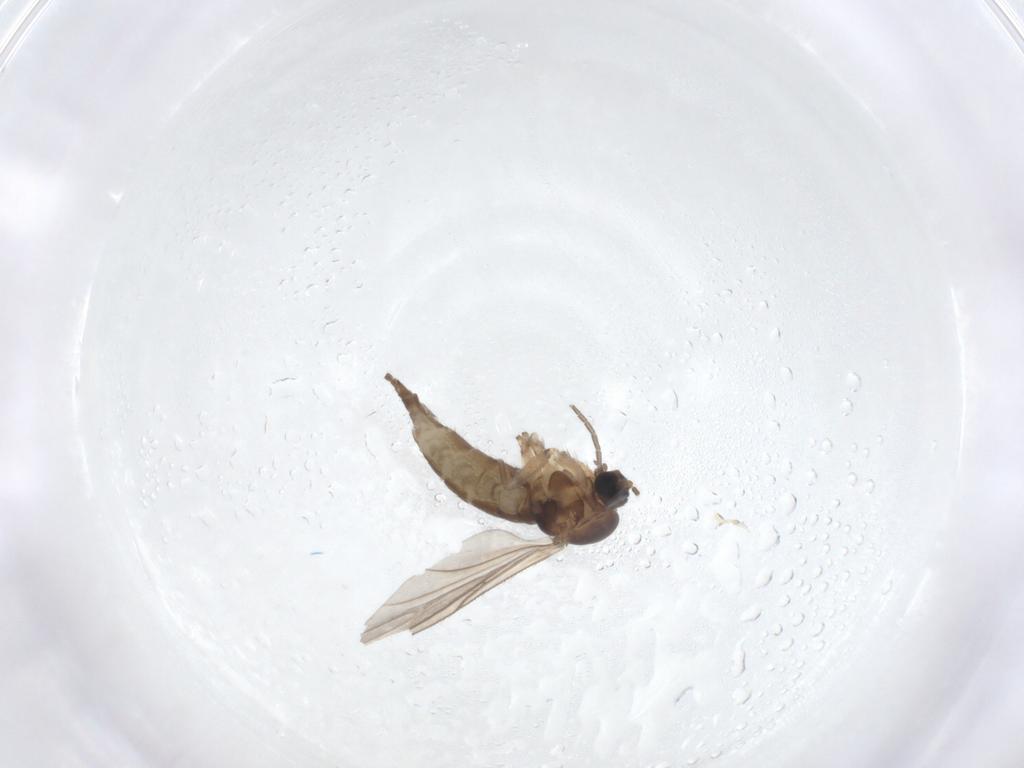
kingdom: Animalia
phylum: Arthropoda
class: Insecta
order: Diptera
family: Sciaridae
